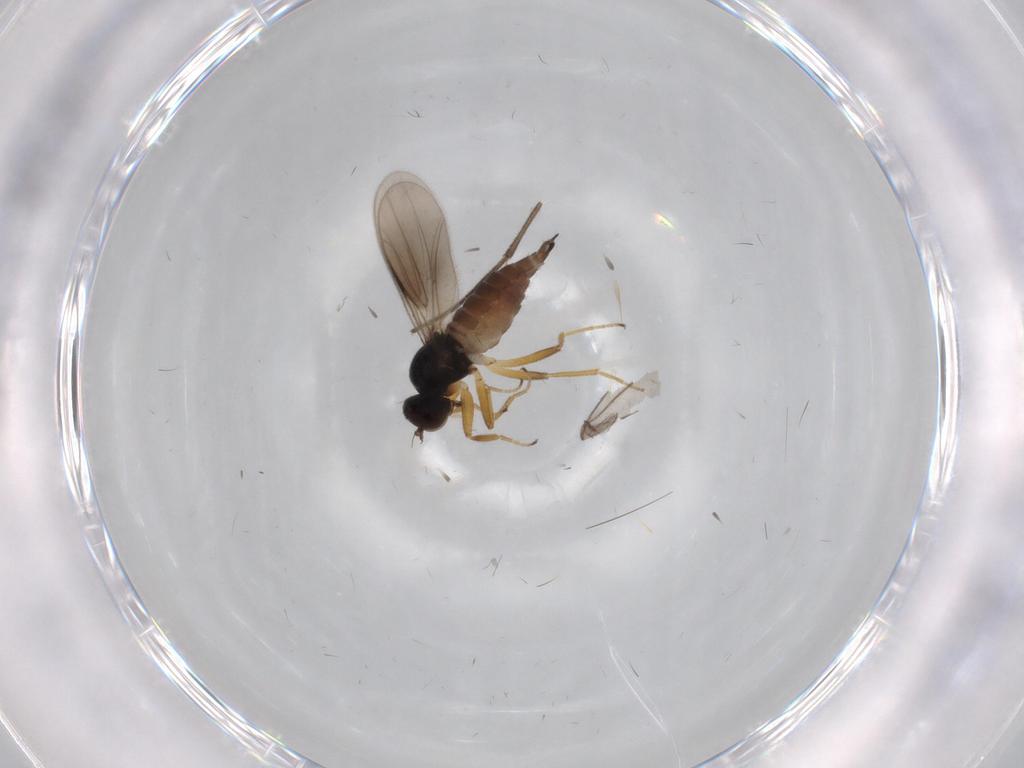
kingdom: Animalia
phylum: Arthropoda
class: Insecta
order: Diptera
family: Hybotidae
